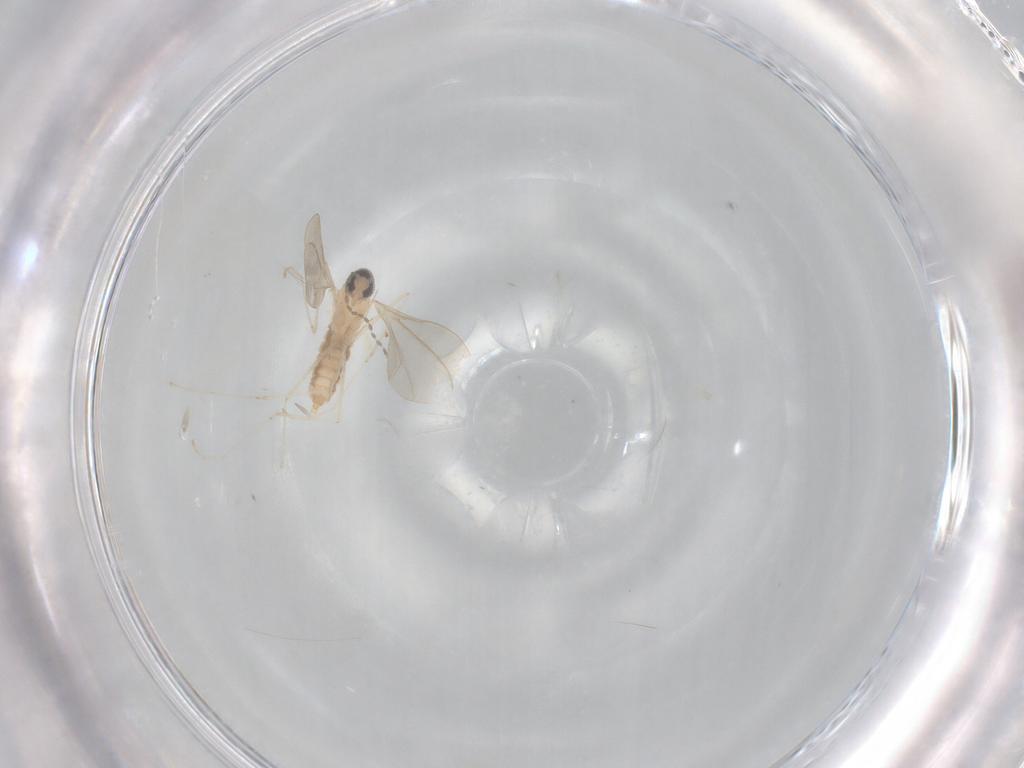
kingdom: Animalia
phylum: Arthropoda
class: Insecta
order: Diptera
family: Cecidomyiidae
